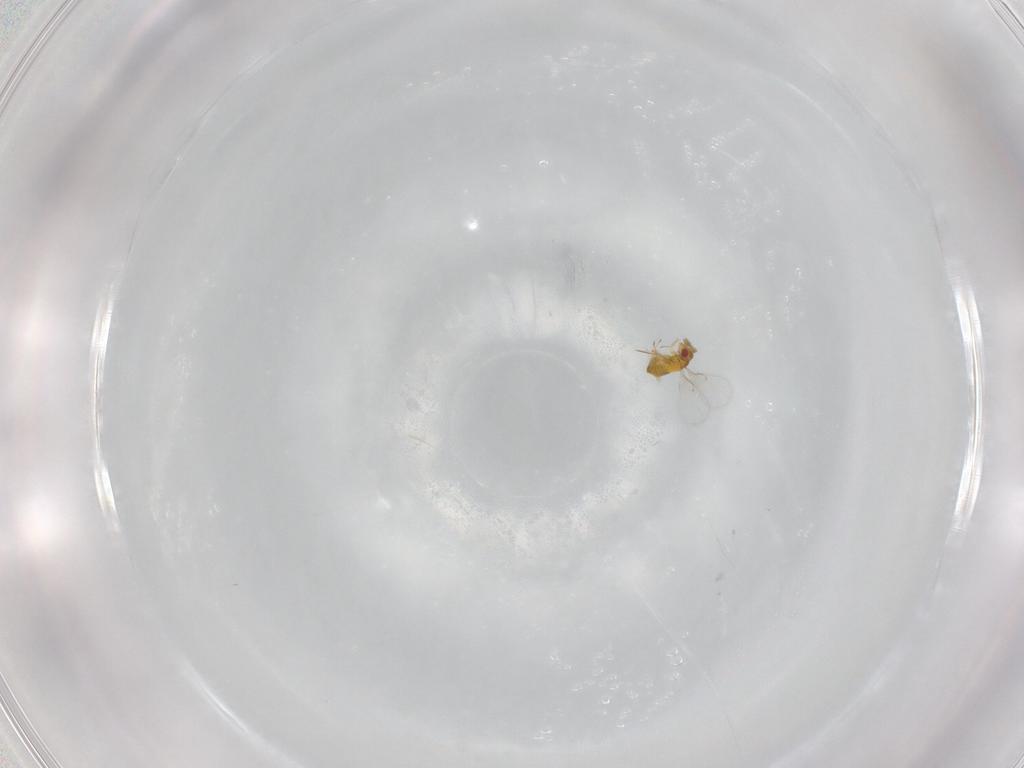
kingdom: Animalia
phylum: Arthropoda
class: Insecta
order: Hymenoptera
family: Trichogrammatidae
